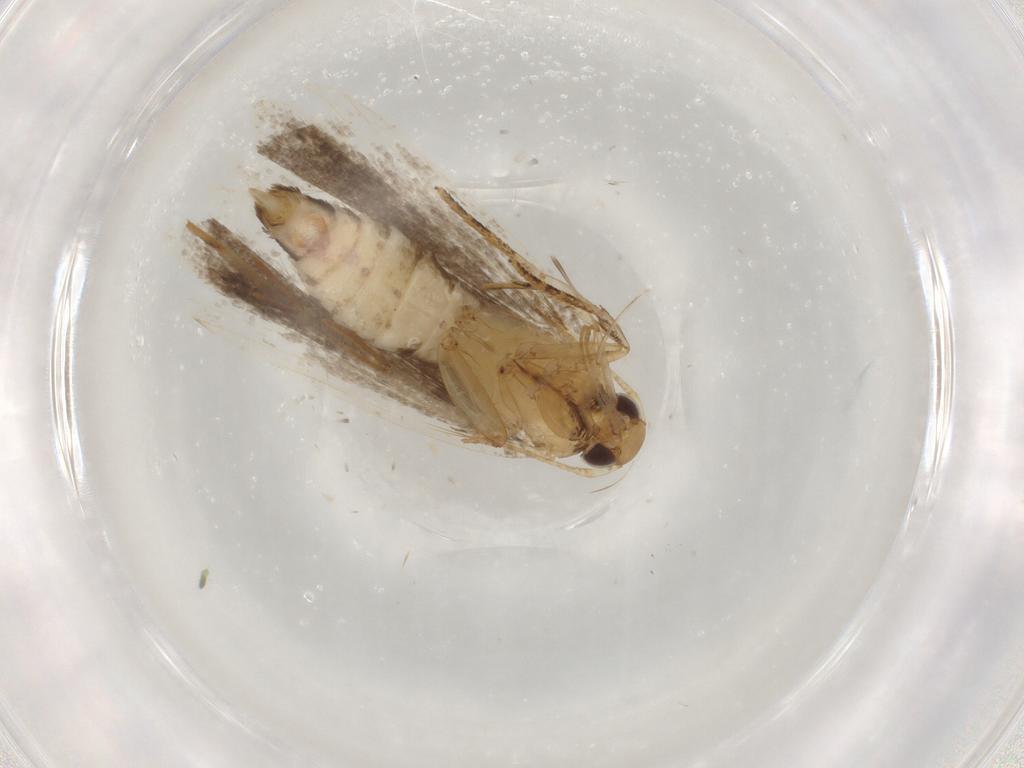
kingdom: Animalia
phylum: Arthropoda
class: Insecta
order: Lepidoptera
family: Gelechiidae
